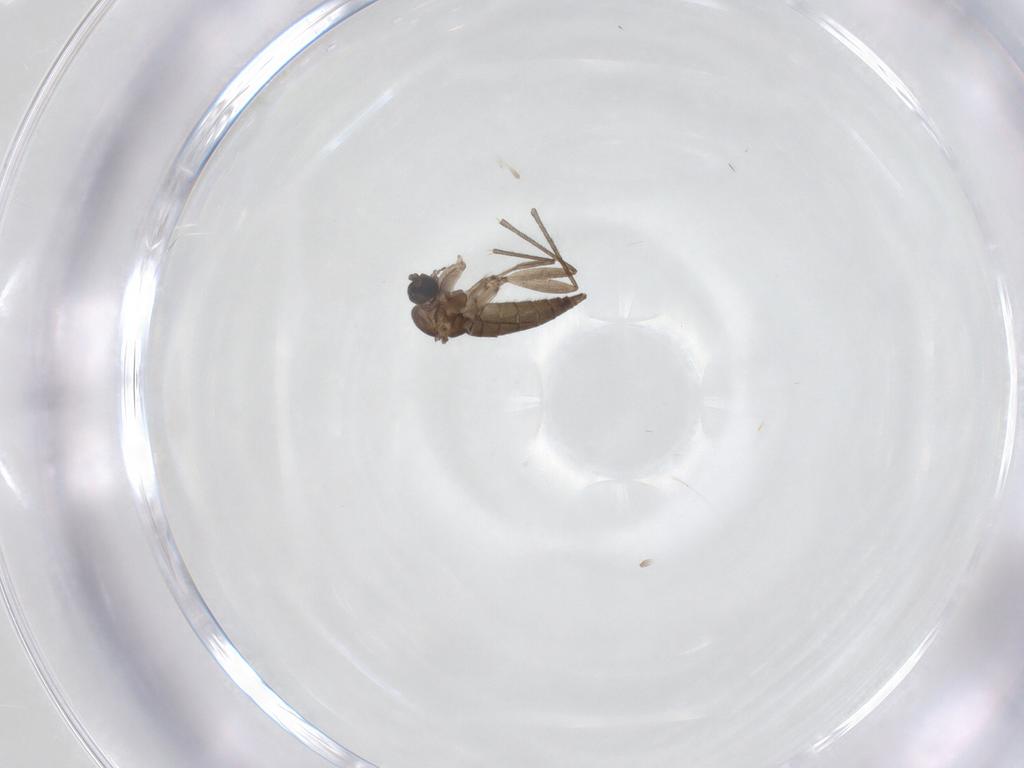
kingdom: Animalia
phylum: Arthropoda
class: Insecta
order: Diptera
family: Sciaridae
